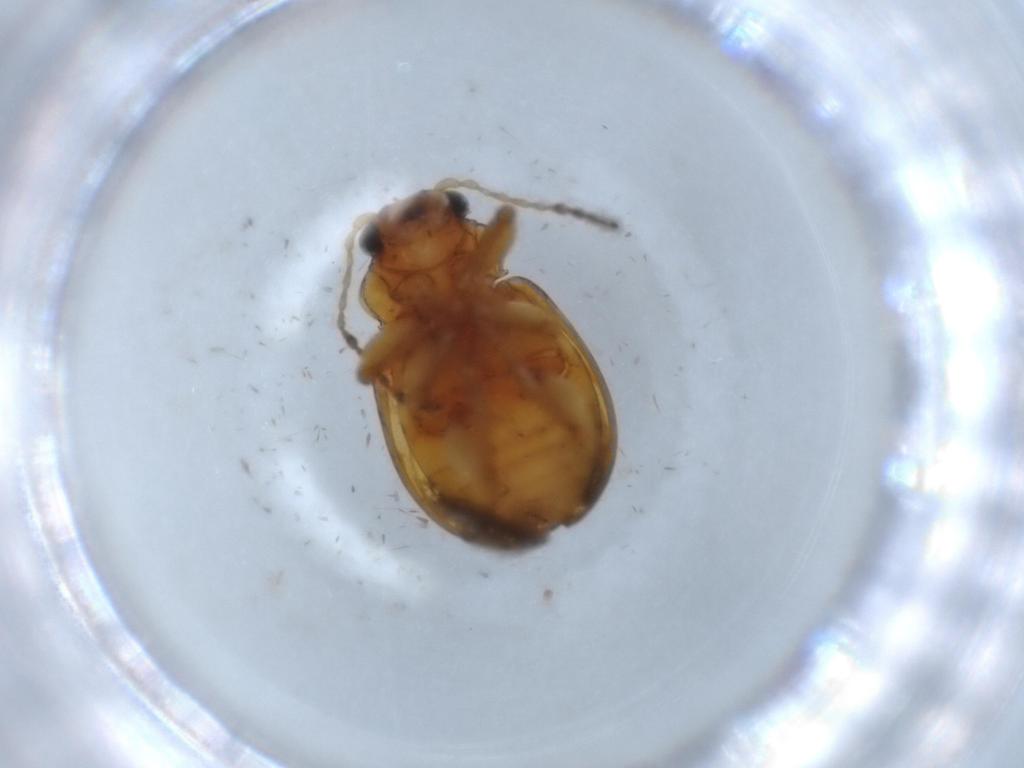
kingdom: Animalia
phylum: Arthropoda
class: Insecta
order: Coleoptera
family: Chrysomelidae
